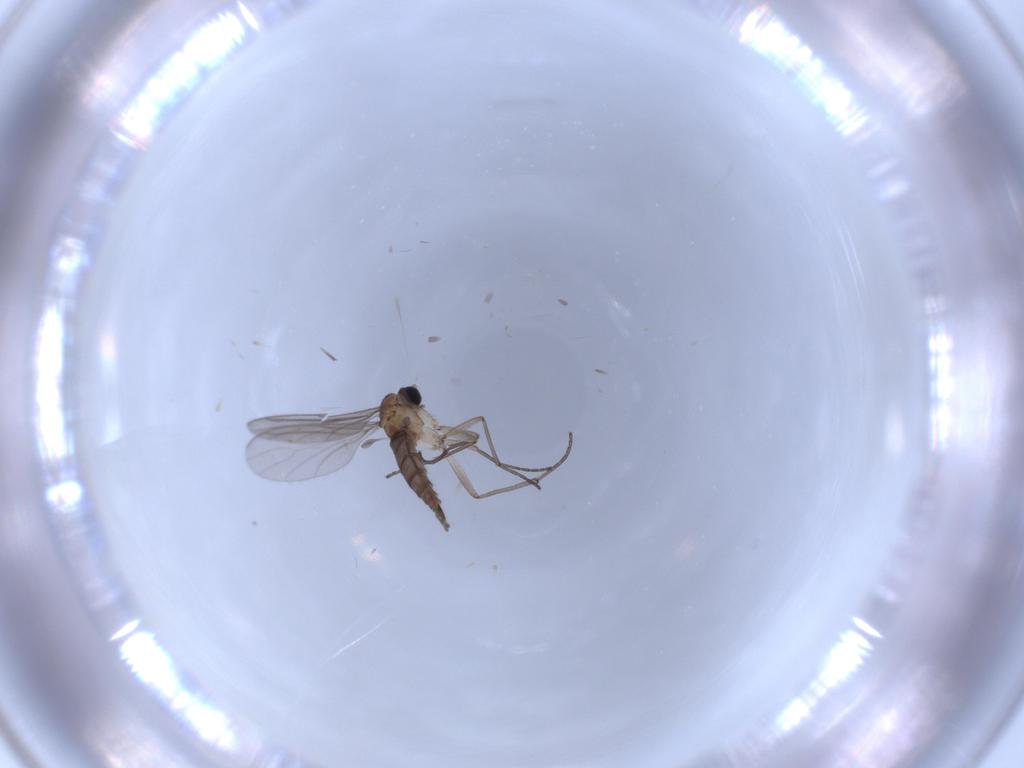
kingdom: Animalia
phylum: Arthropoda
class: Insecta
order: Diptera
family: Sciaridae
